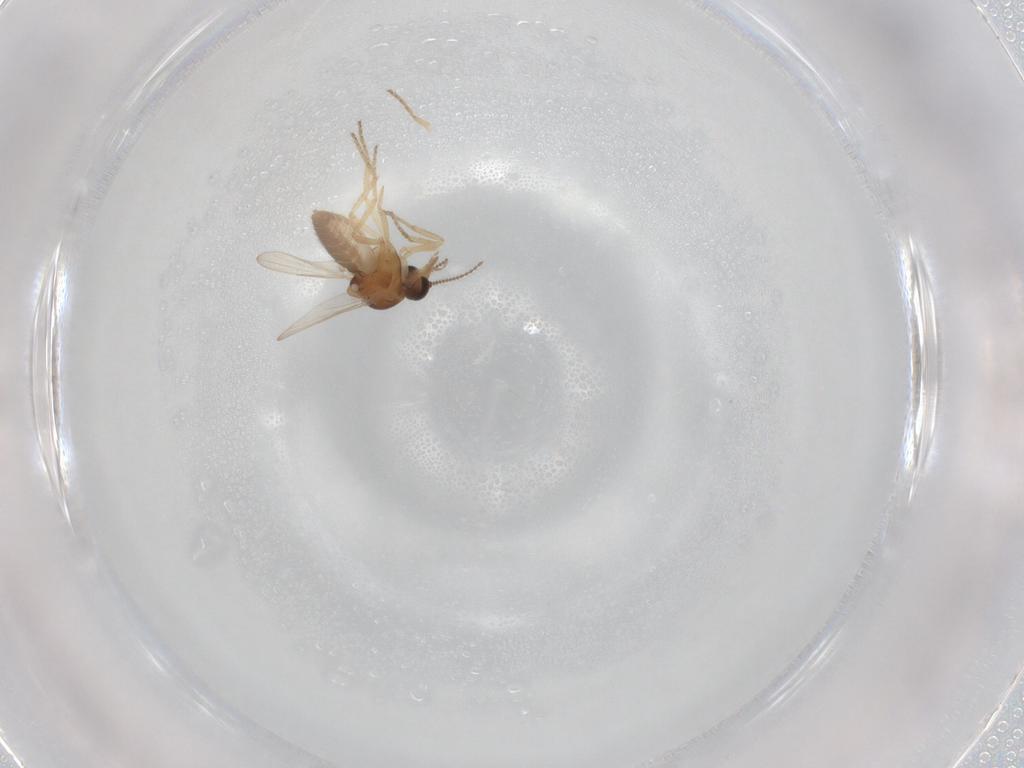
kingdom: Animalia
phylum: Arthropoda
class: Insecta
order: Diptera
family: Ceratopogonidae
